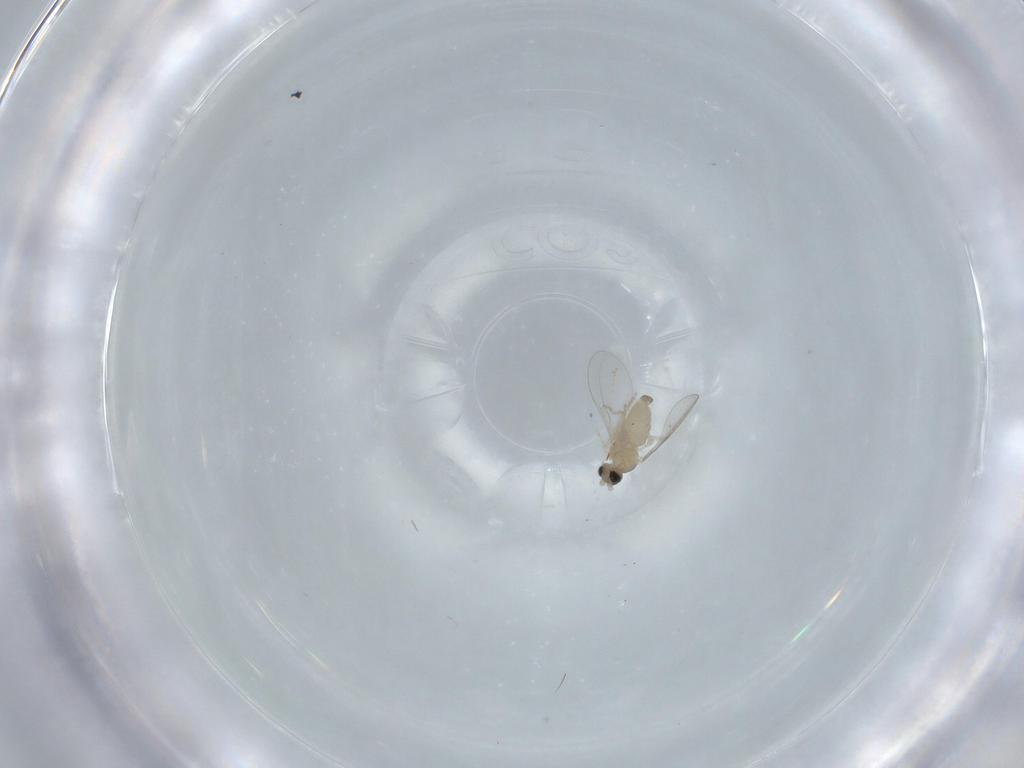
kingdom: Animalia
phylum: Arthropoda
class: Insecta
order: Diptera
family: Cecidomyiidae
